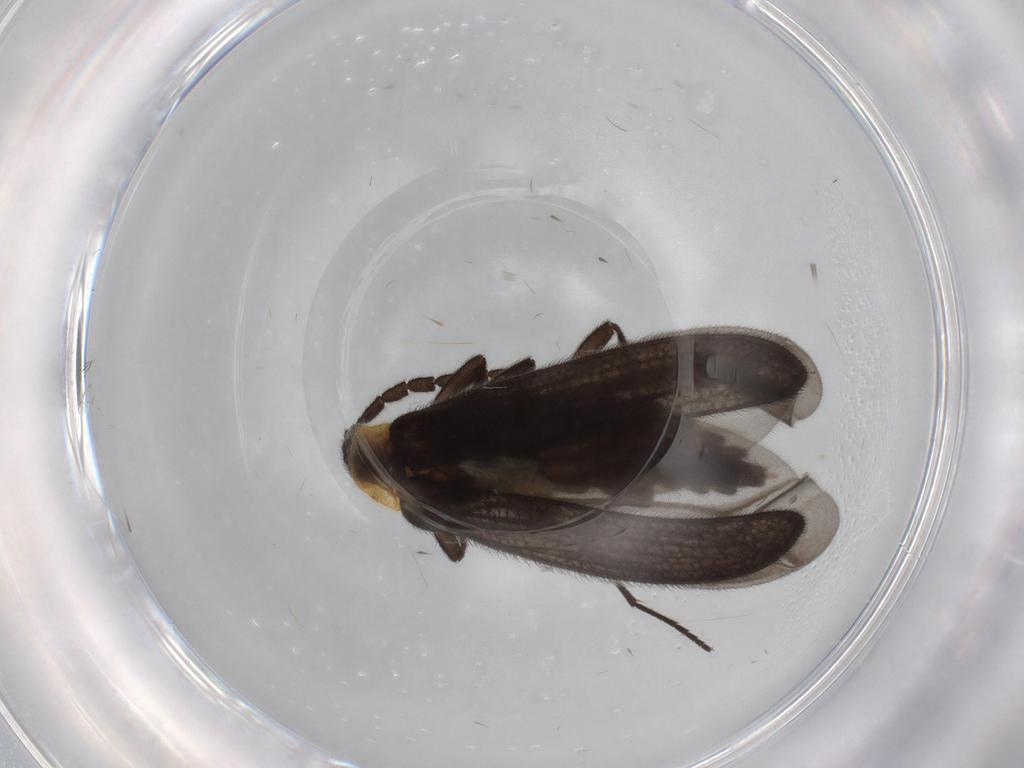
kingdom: Animalia
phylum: Arthropoda
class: Insecta
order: Coleoptera
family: Lycidae
